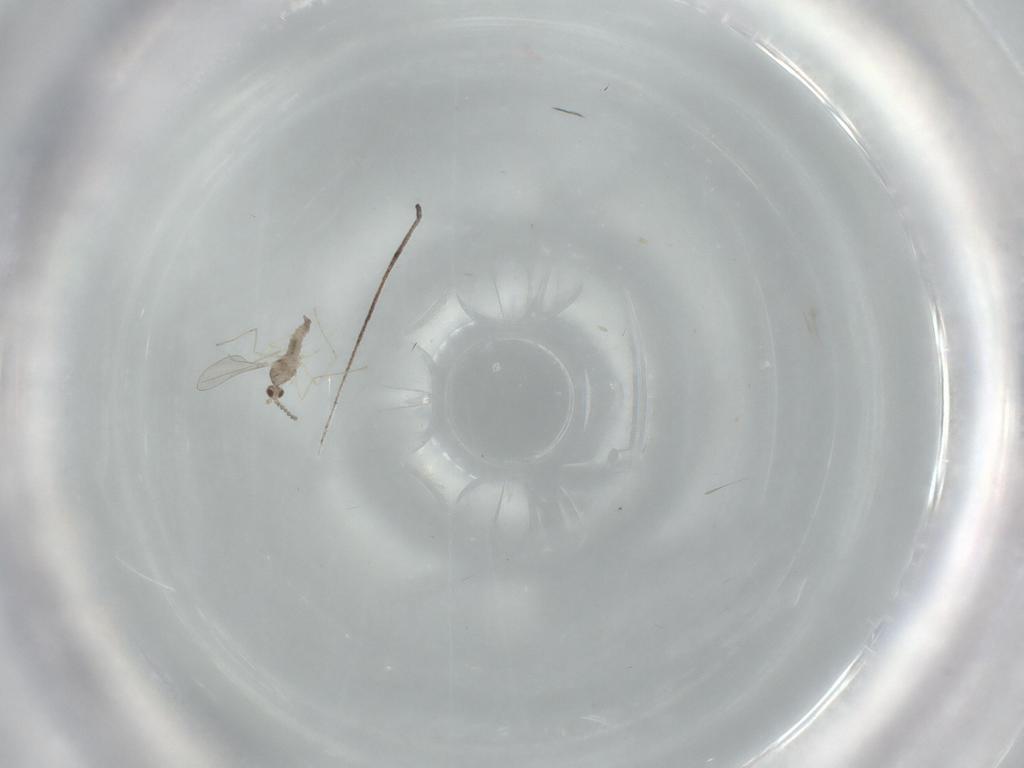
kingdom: Animalia
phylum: Arthropoda
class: Insecta
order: Diptera
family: Cecidomyiidae
